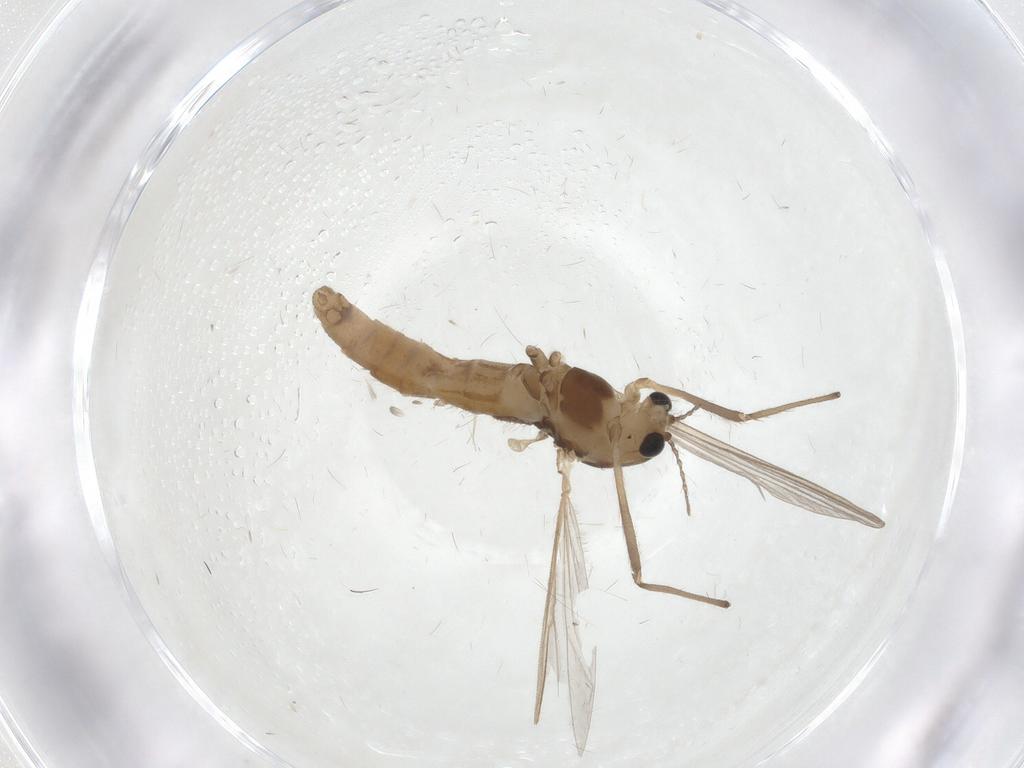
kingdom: Animalia
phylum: Arthropoda
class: Insecta
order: Diptera
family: Chironomidae
